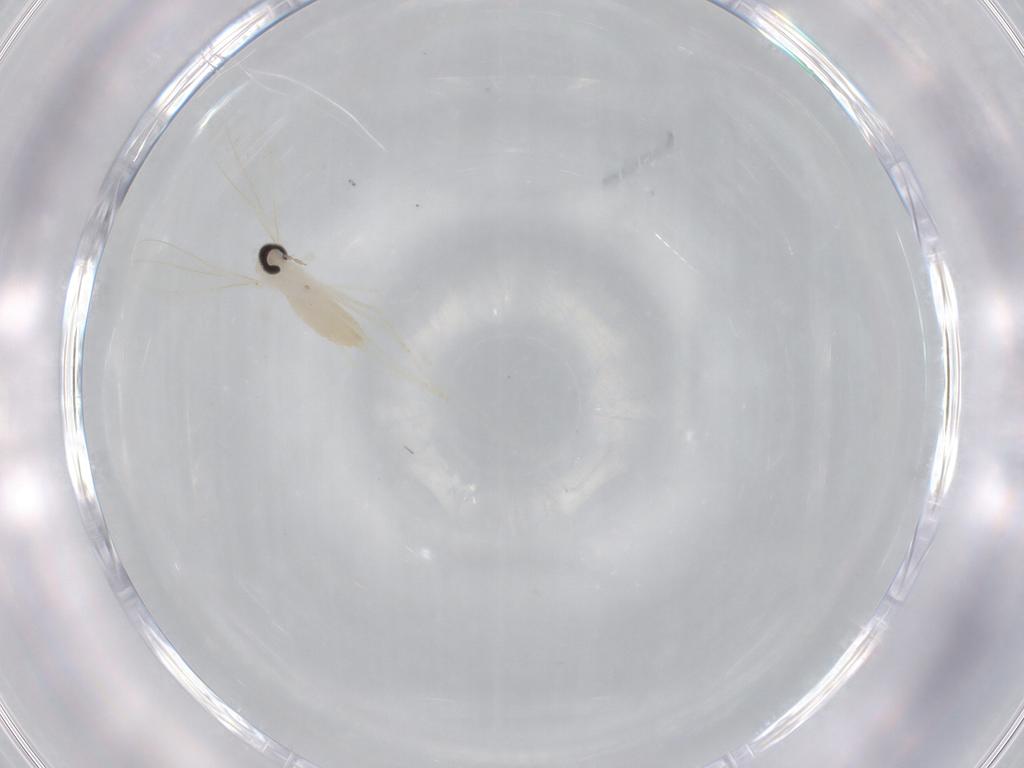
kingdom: Animalia
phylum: Arthropoda
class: Insecta
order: Diptera
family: Cecidomyiidae
